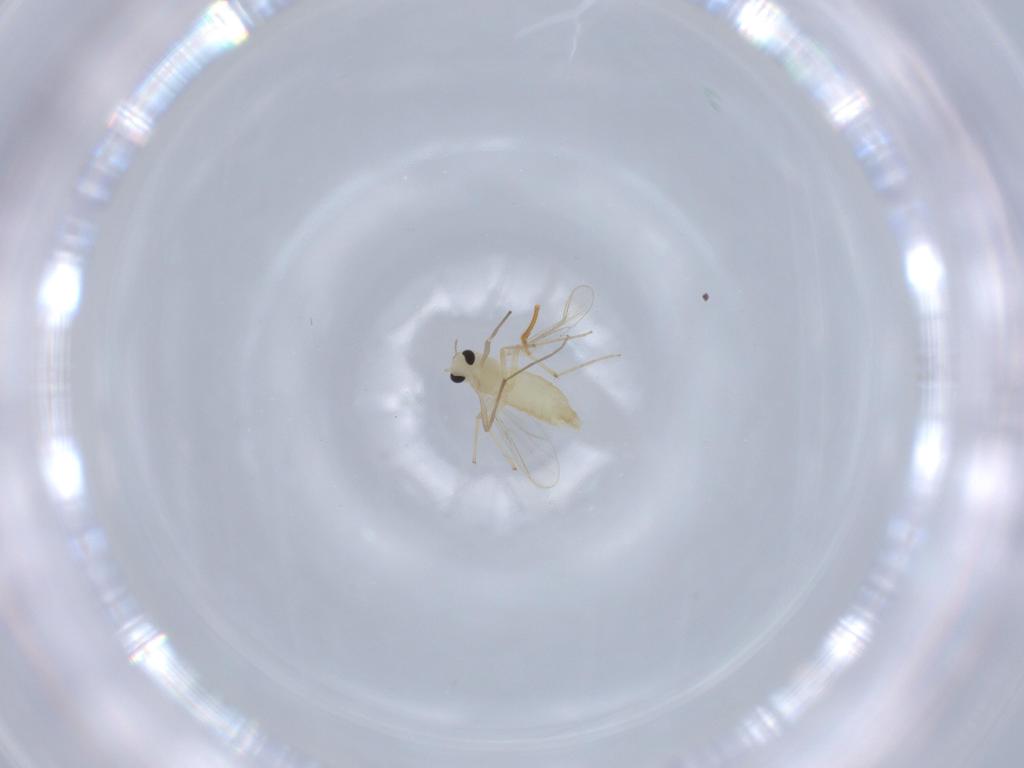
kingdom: Animalia
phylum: Arthropoda
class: Insecta
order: Diptera
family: Chironomidae
